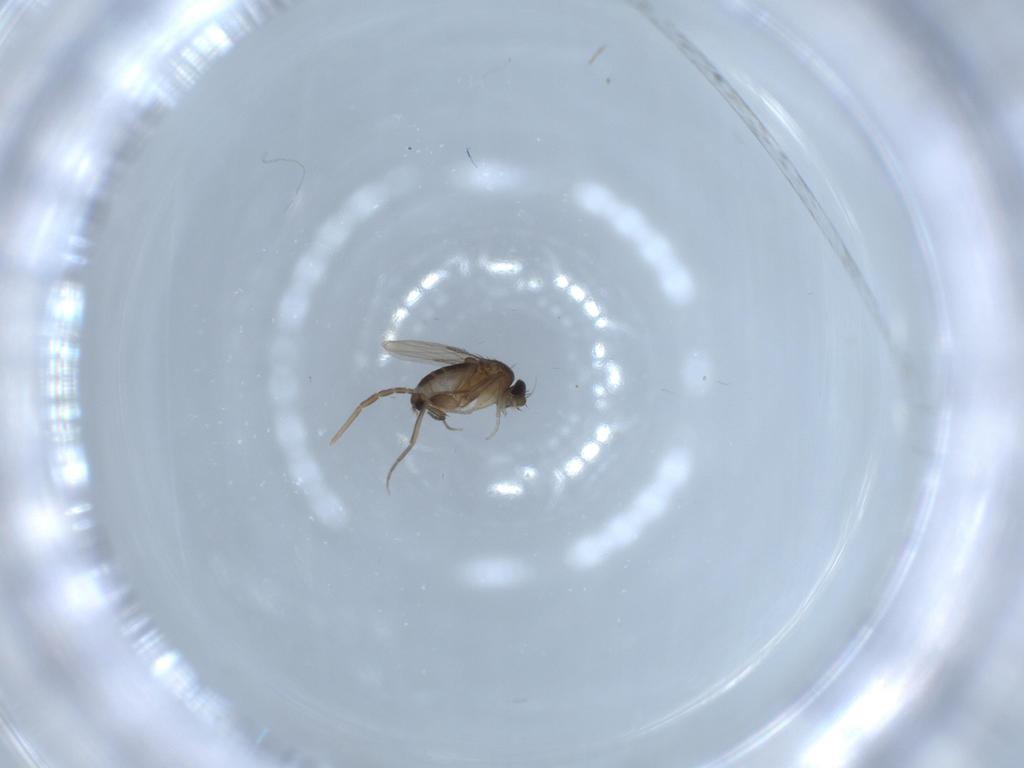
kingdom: Animalia
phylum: Arthropoda
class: Insecta
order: Diptera
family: Phoridae
